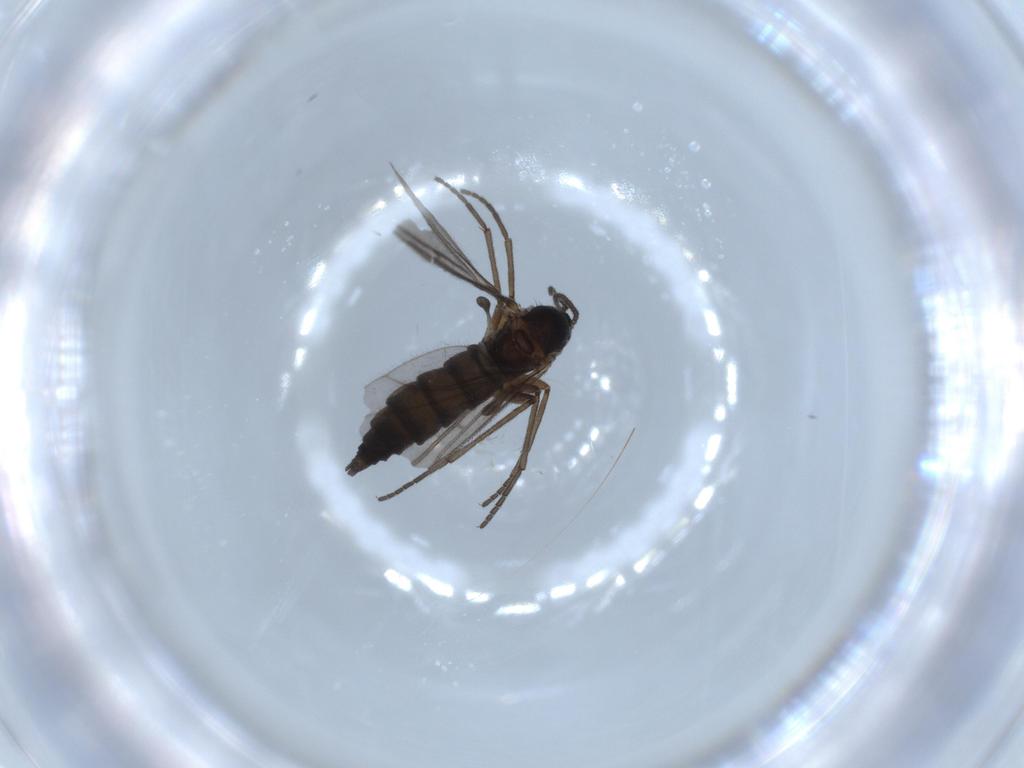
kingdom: Animalia
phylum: Arthropoda
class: Insecta
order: Diptera
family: Sciaridae
